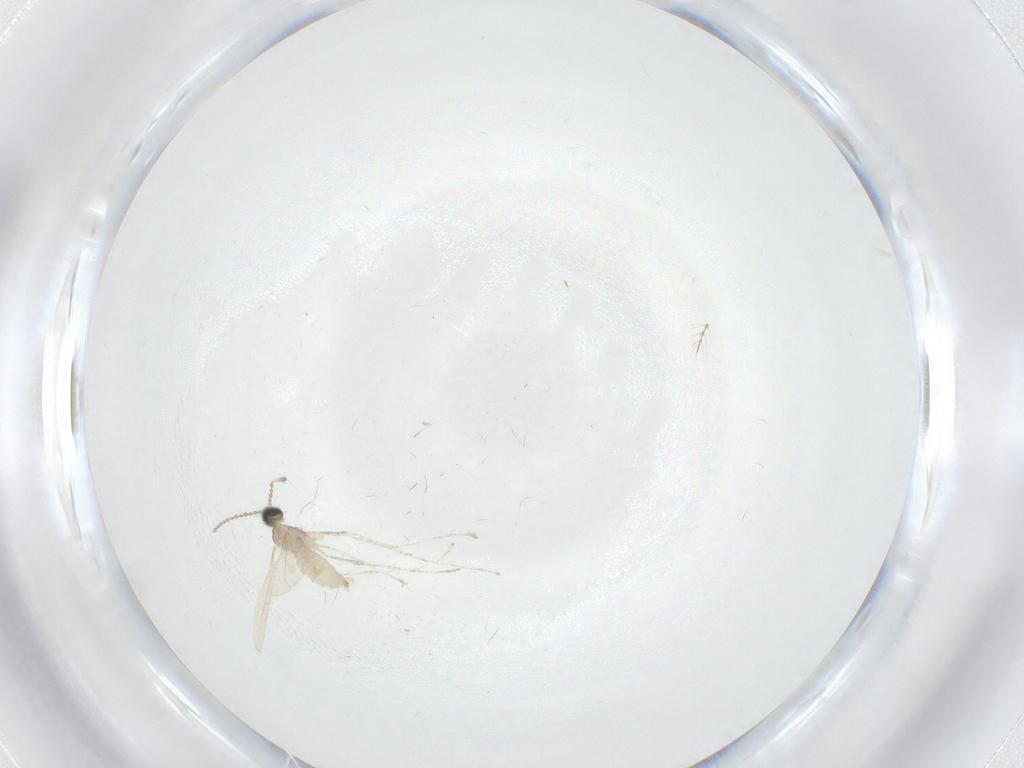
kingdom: Animalia
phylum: Arthropoda
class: Insecta
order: Diptera
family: Cecidomyiidae
